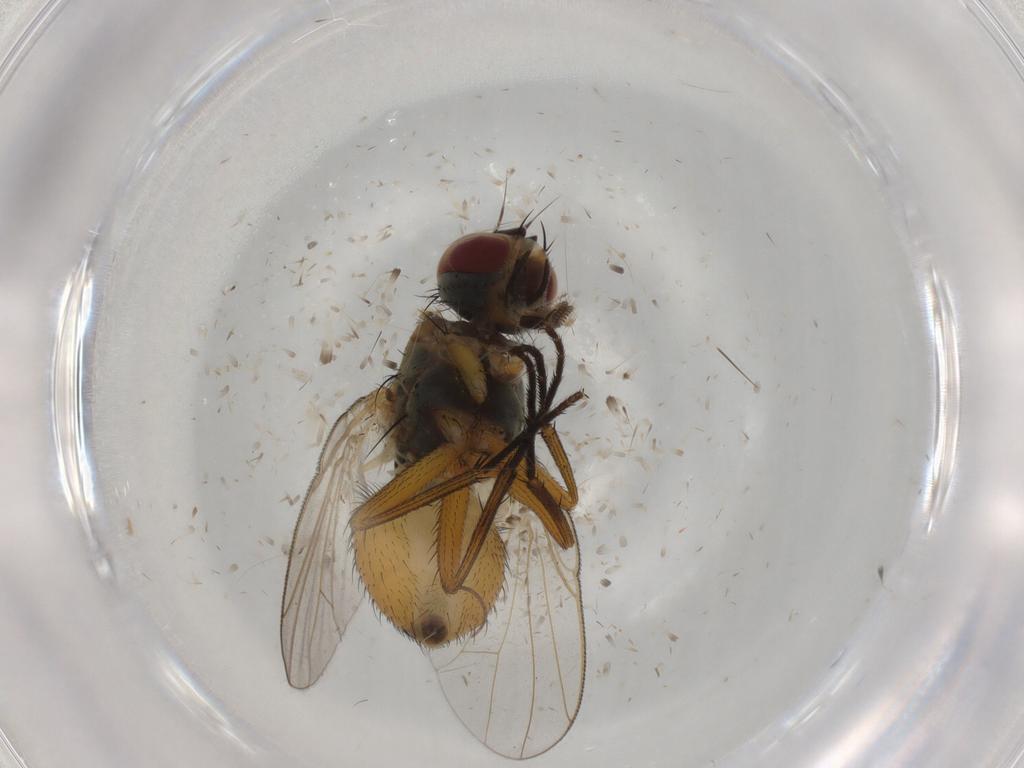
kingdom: Animalia
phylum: Arthropoda
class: Insecta
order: Diptera
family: Muscidae
